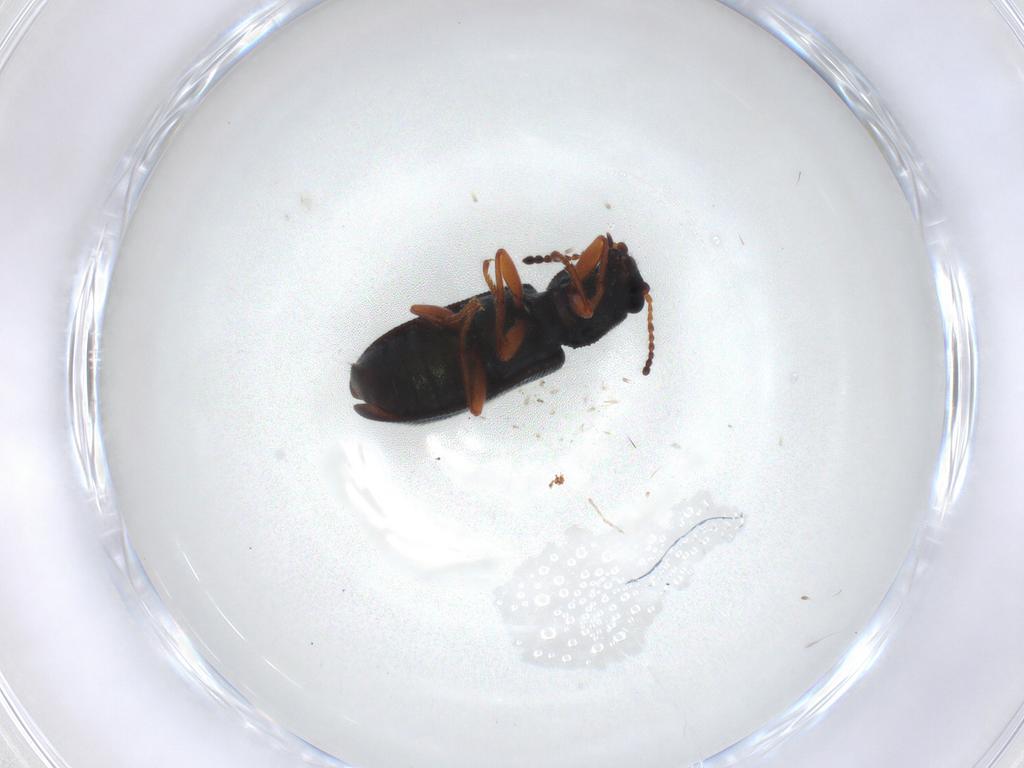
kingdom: Animalia
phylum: Arthropoda
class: Insecta
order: Coleoptera
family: Melyridae
